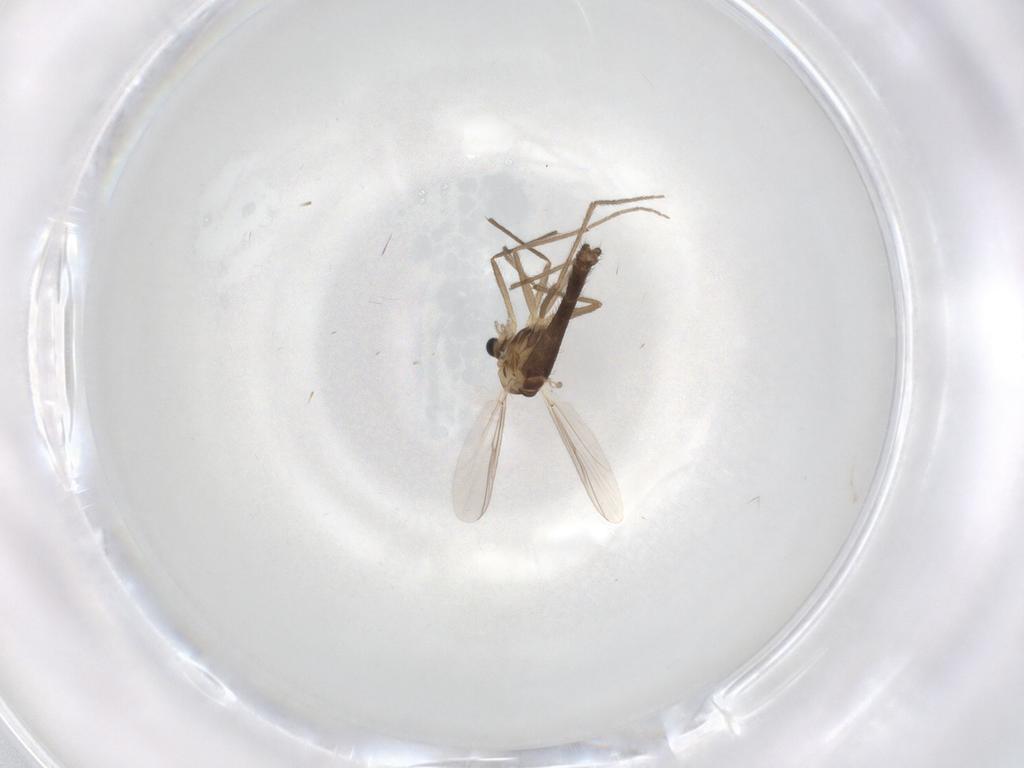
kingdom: Animalia
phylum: Arthropoda
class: Insecta
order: Diptera
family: Chironomidae
